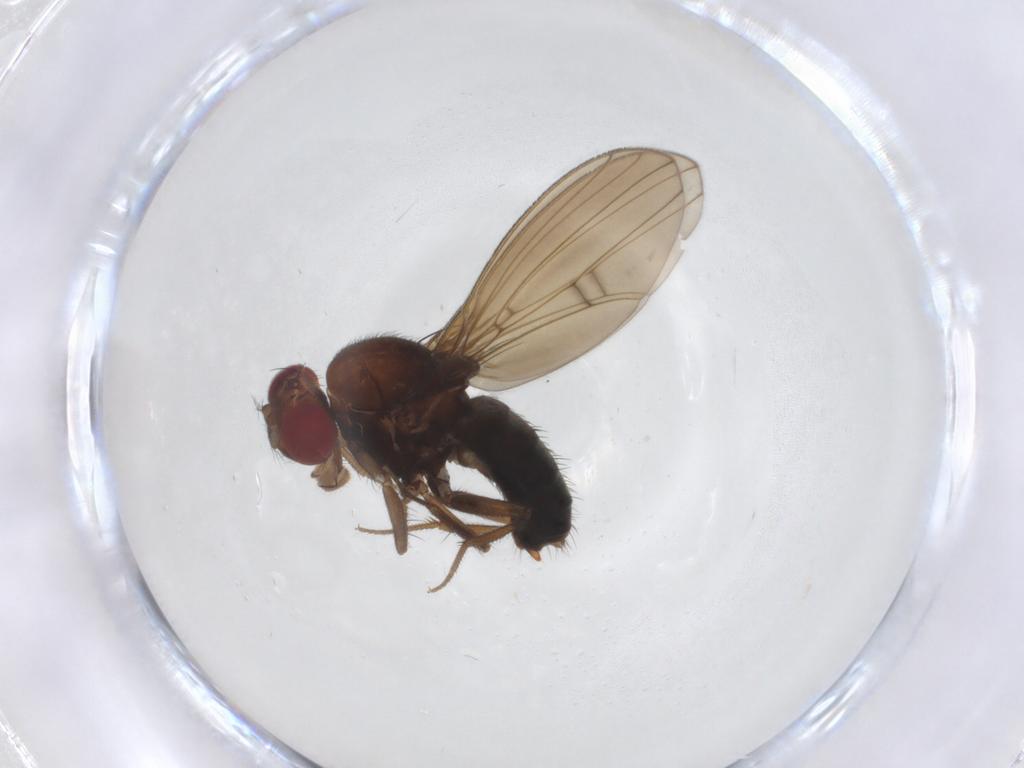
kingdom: Animalia
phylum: Arthropoda
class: Insecta
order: Diptera
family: Drosophilidae
